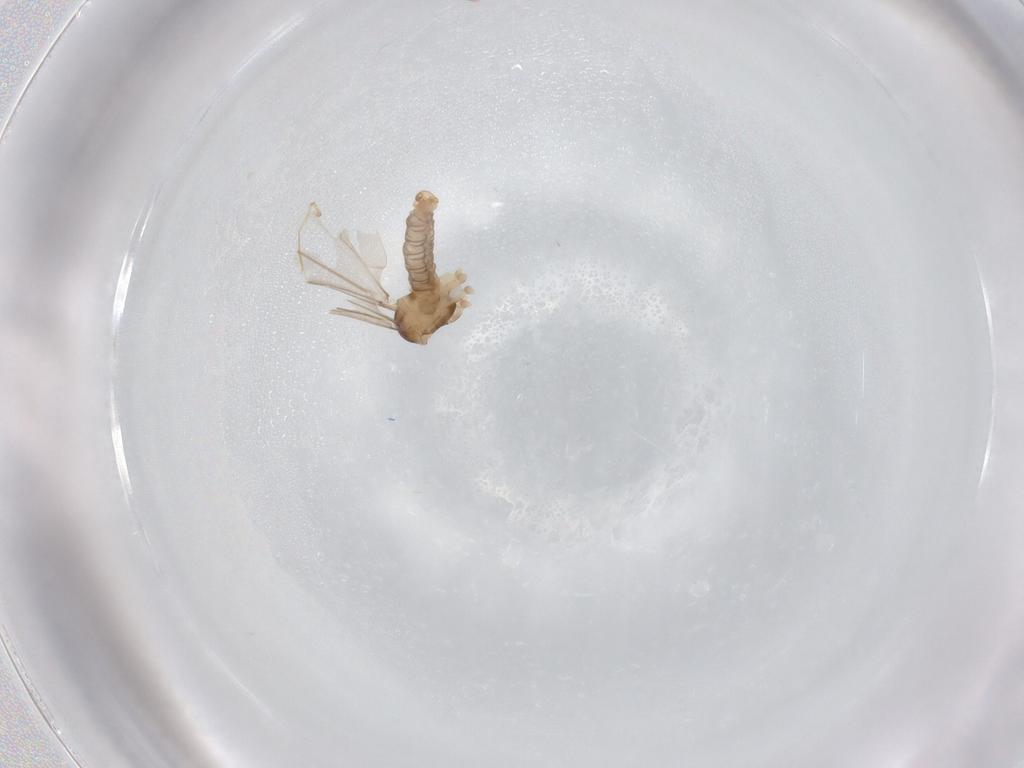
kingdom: Animalia
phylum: Arthropoda
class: Insecta
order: Diptera
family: Cecidomyiidae
